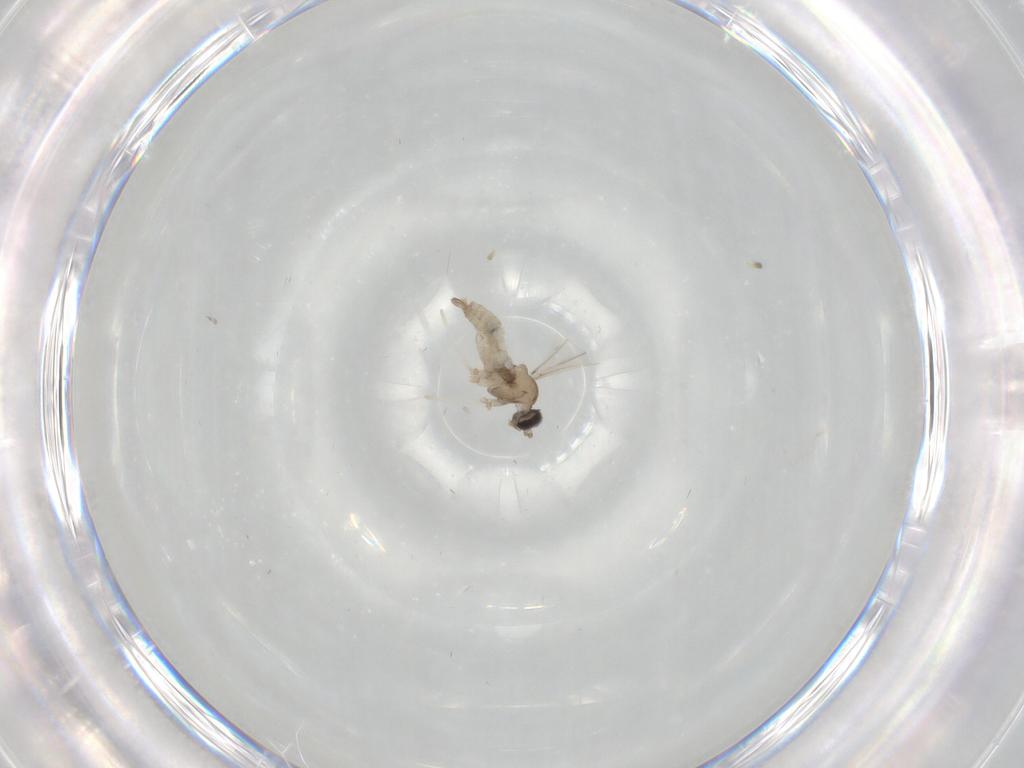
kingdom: Animalia
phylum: Arthropoda
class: Insecta
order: Diptera
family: Cecidomyiidae
